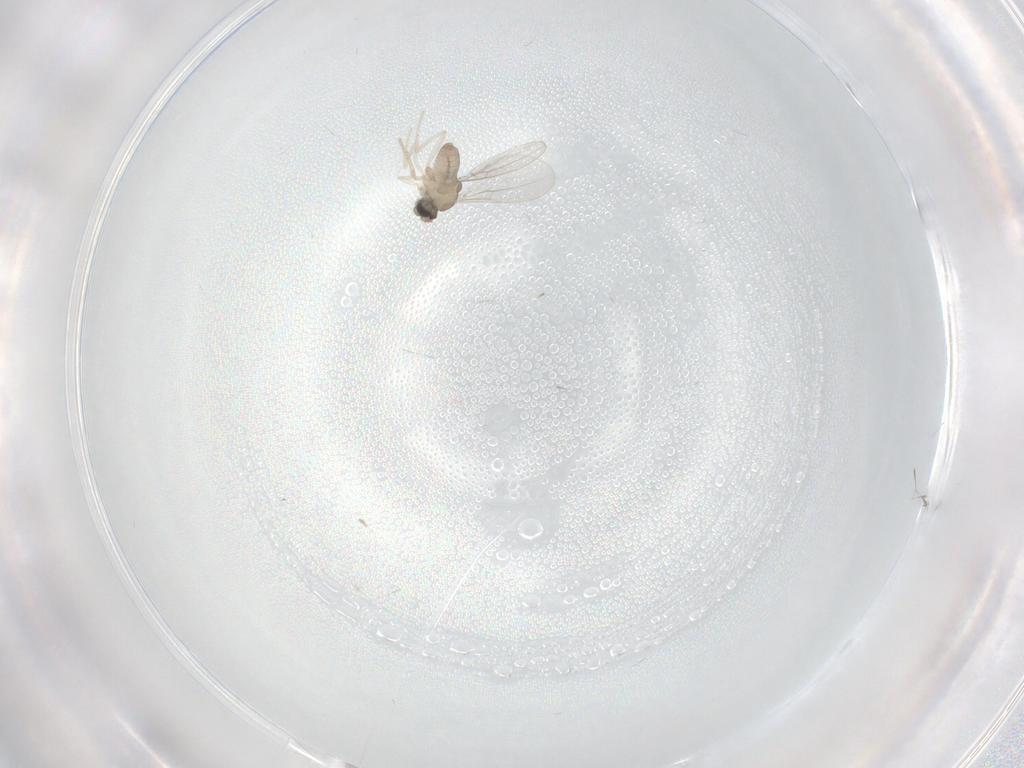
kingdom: Animalia
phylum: Arthropoda
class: Insecta
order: Diptera
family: Cecidomyiidae
